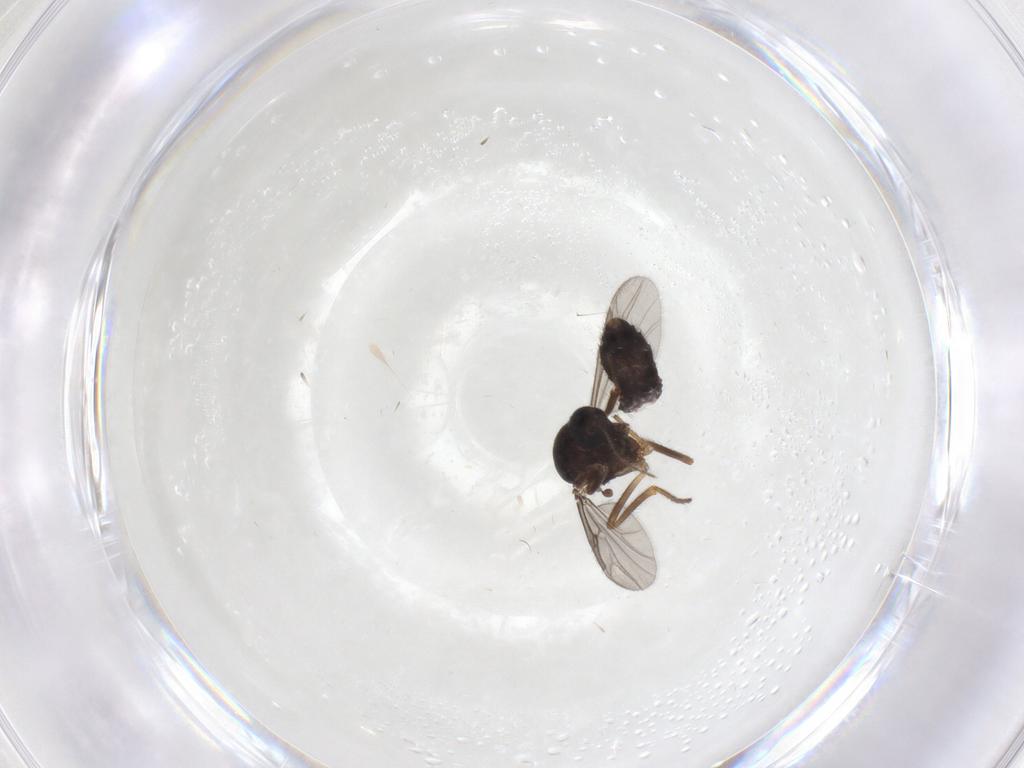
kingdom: Animalia
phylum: Arthropoda
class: Insecta
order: Diptera
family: Ceratopogonidae
